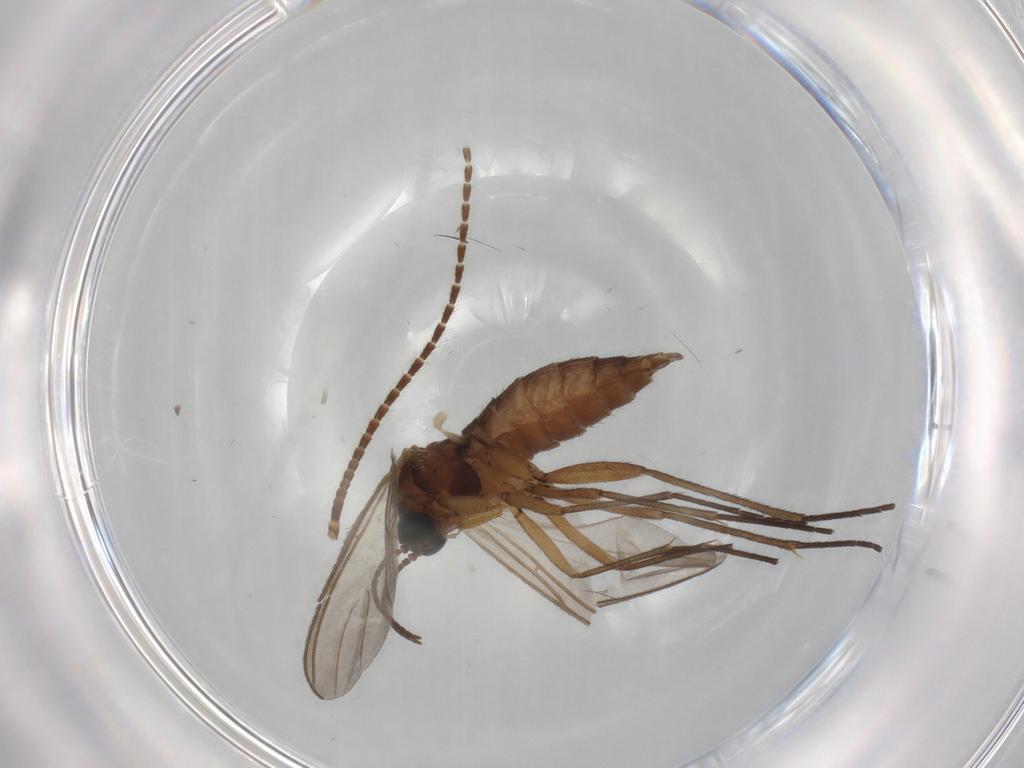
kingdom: Animalia
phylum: Arthropoda
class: Insecta
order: Diptera
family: Sciaridae
